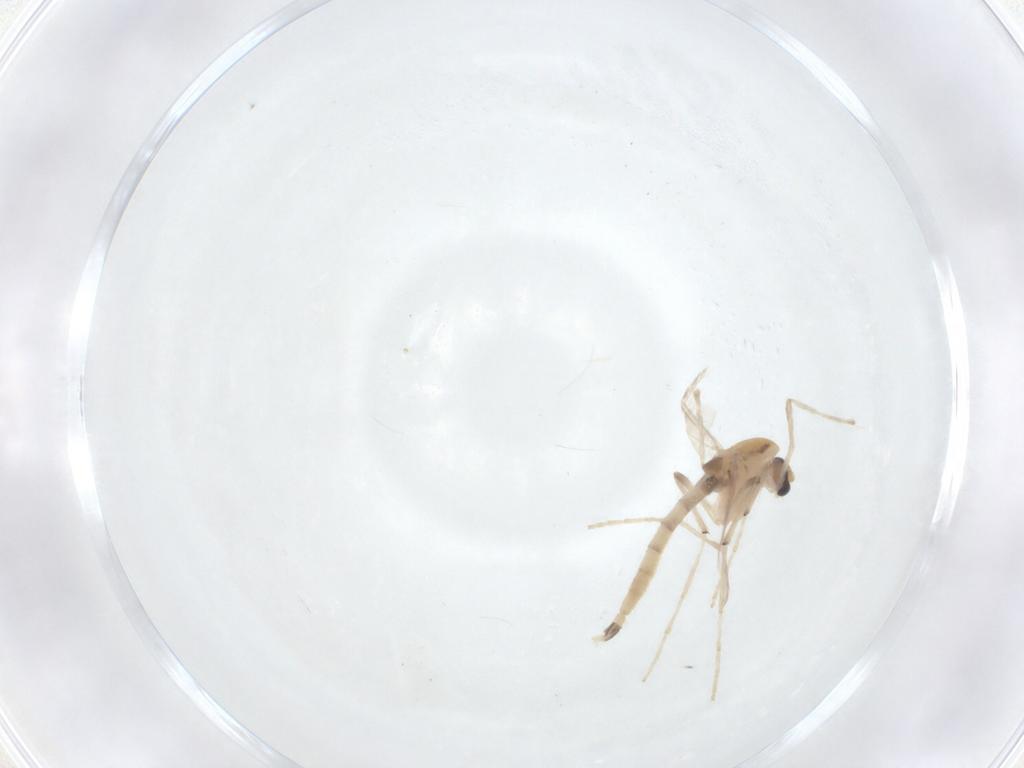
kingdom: Animalia
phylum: Arthropoda
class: Insecta
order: Diptera
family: Chironomidae
